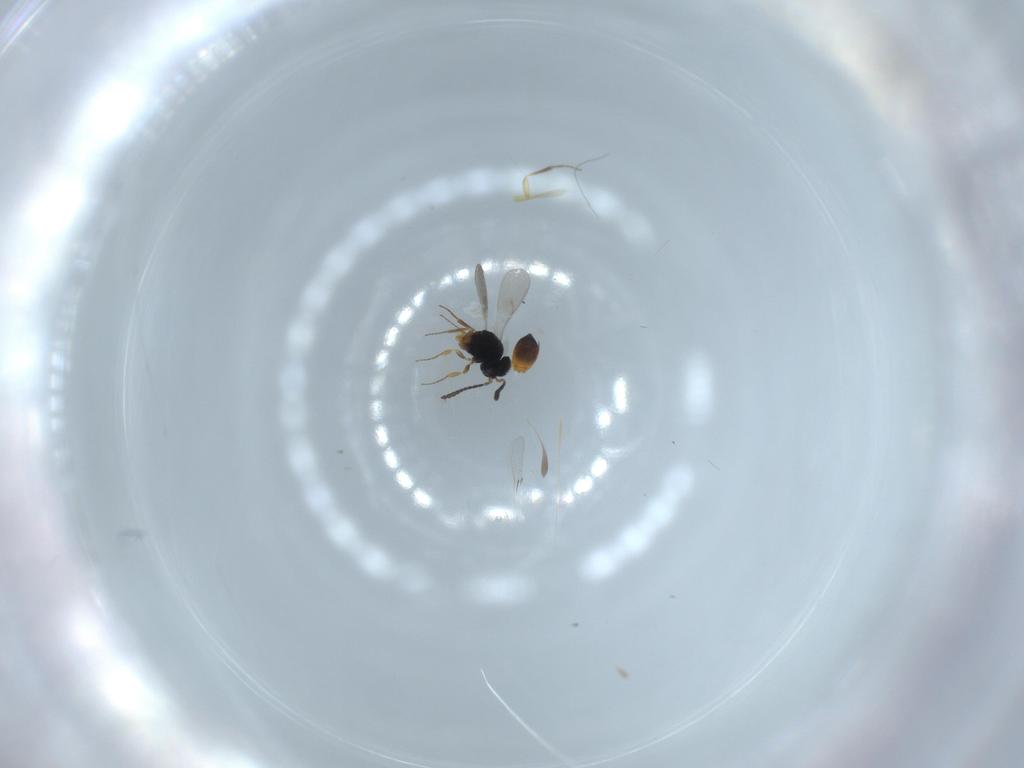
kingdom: Animalia
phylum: Arthropoda
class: Insecta
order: Hymenoptera
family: Scelionidae
